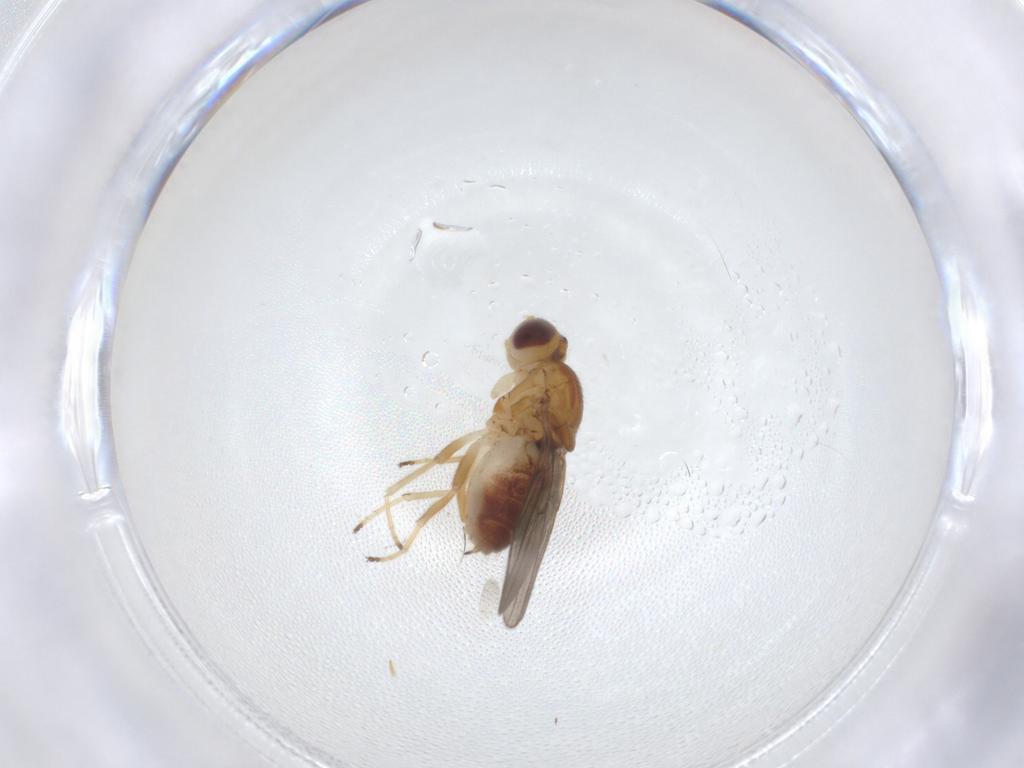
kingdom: Animalia
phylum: Arthropoda
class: Insecta
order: Diptera
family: Chloropidae
